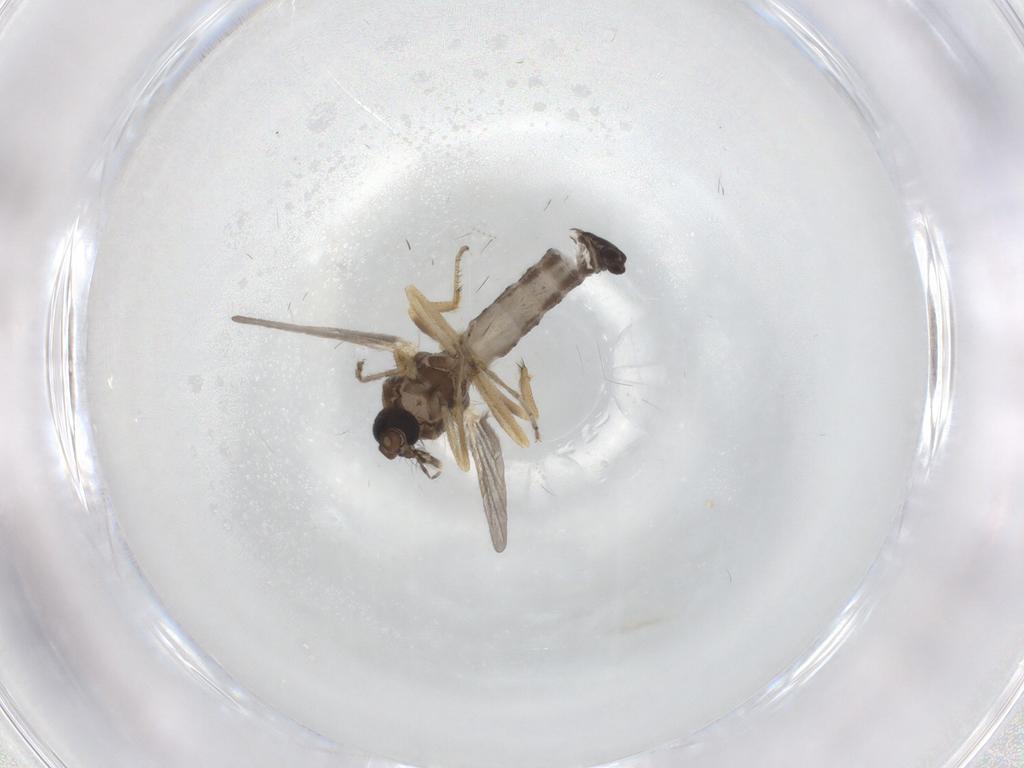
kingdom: Animalia
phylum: Arthropoda
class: Insecta
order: Diptera
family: Ceratopogonidae
